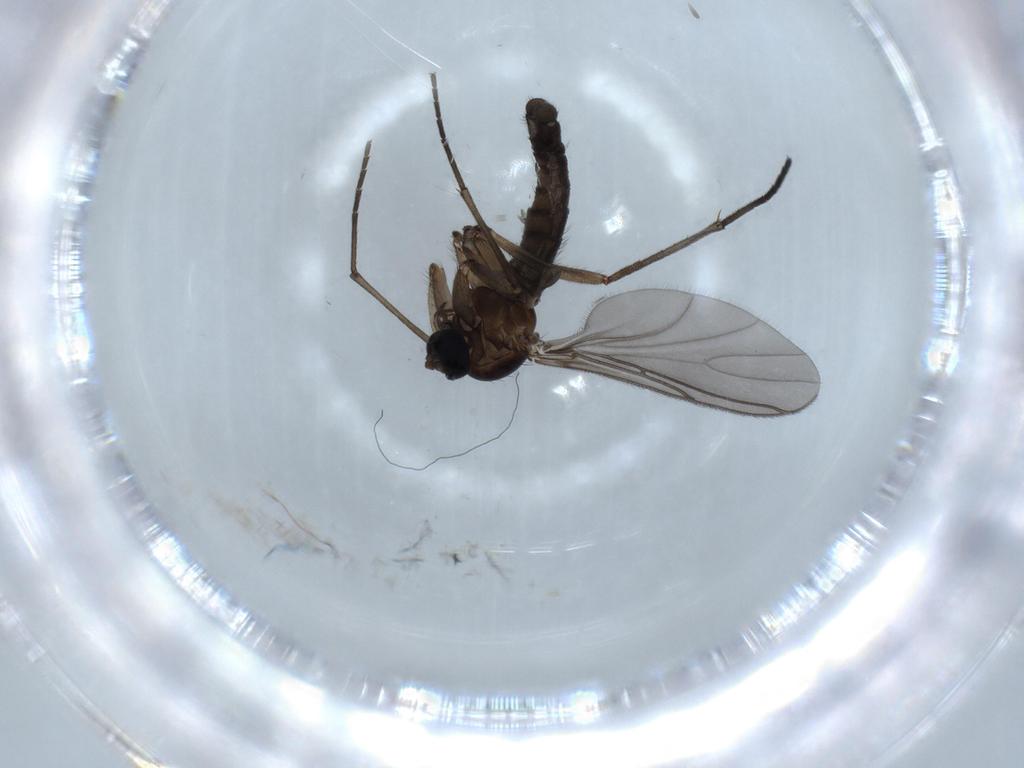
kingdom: Animalia
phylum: Arthropoda
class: Insecta
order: Diptera
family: Sciaridae
